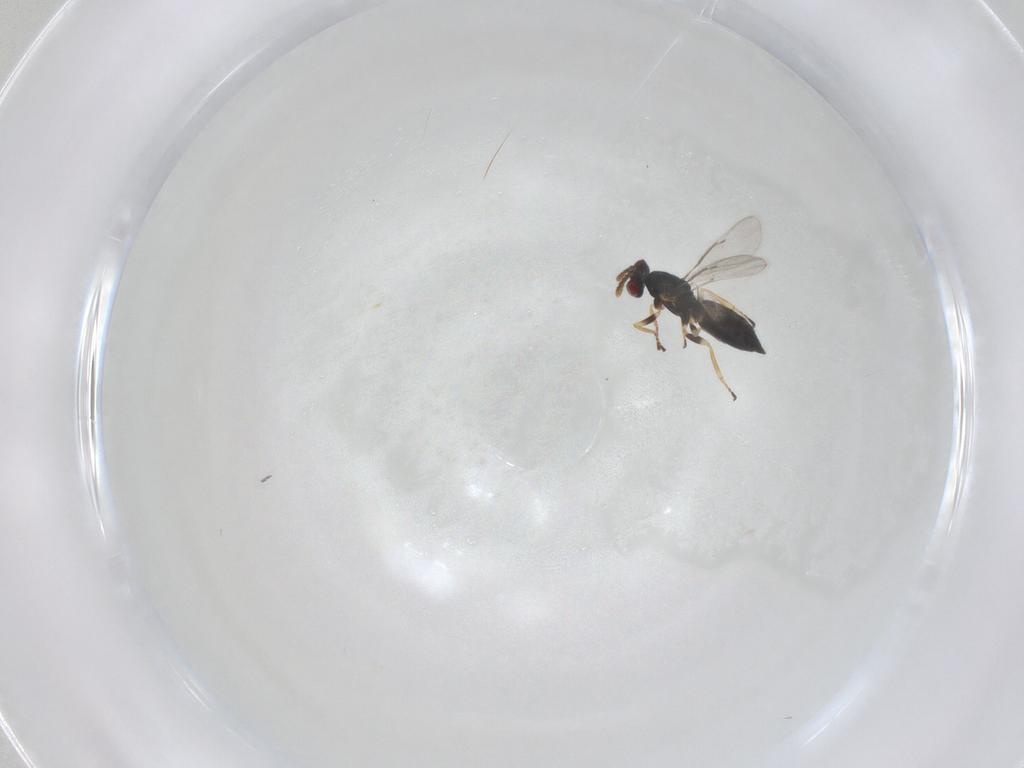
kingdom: Animalia
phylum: Arthropoda
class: Insecta
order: Hymenoptera
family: Eulophidae
